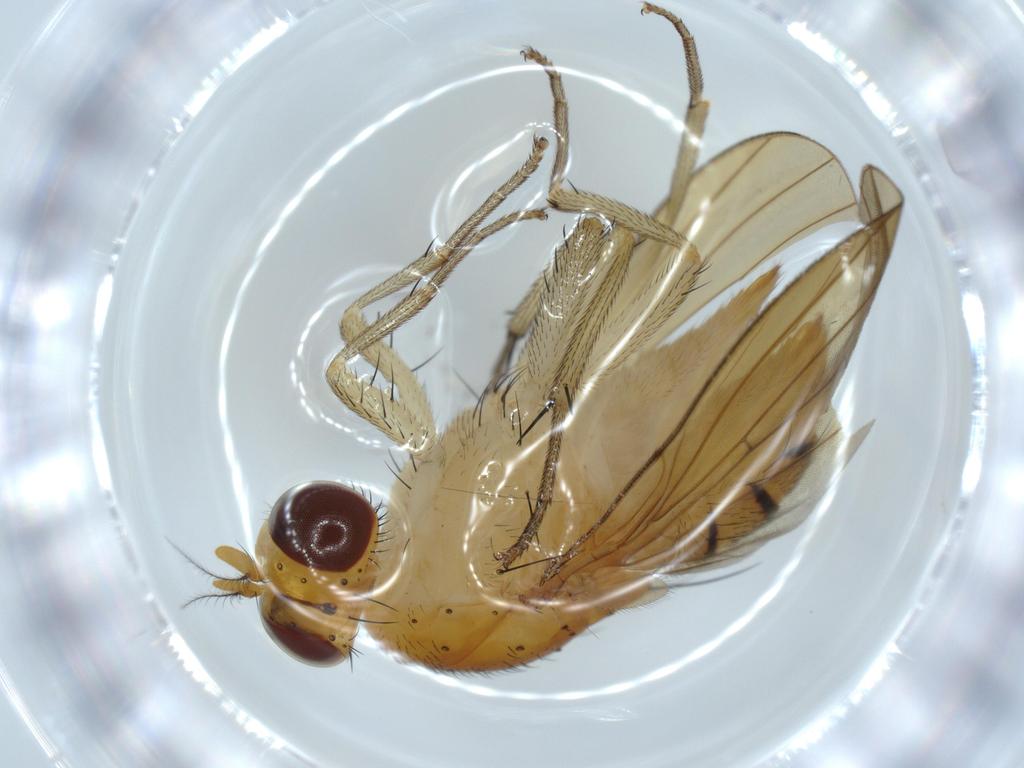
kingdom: Animalia
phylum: Arthropoda
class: Insecta
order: Diptera
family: Lauxaniidae
